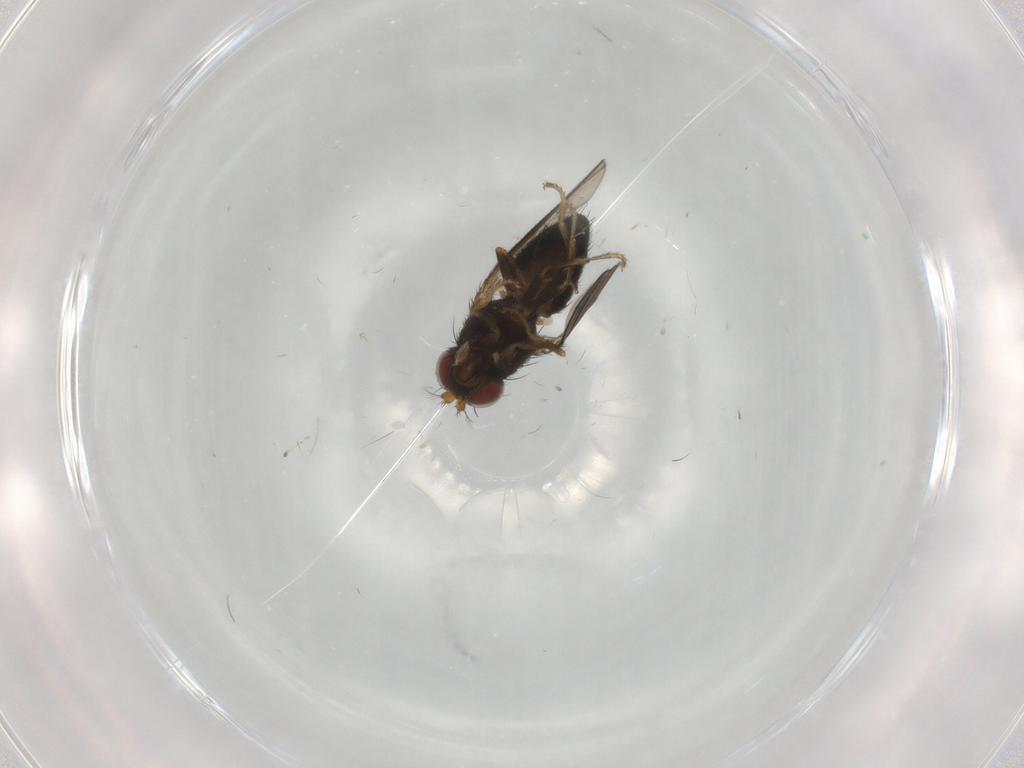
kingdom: Animalia
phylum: Arthropoda
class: Insecta
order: Diptera
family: Ephydridae
